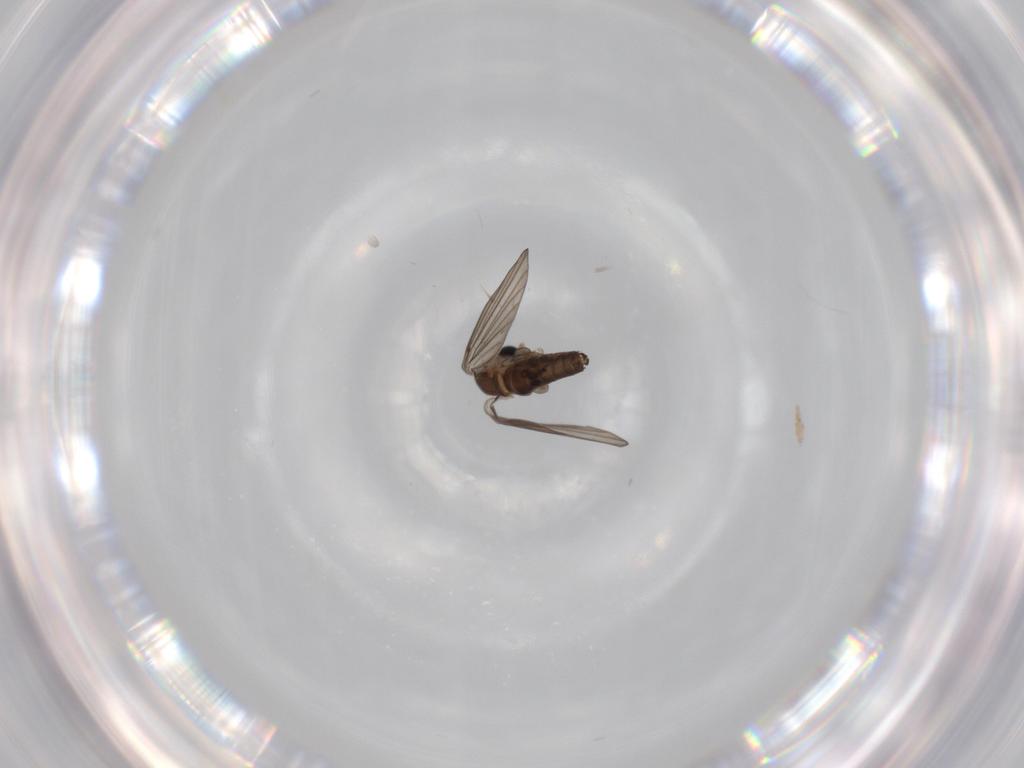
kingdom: Animalia
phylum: Arthropoda
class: Insecta
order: Diptera
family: Psychodidae
